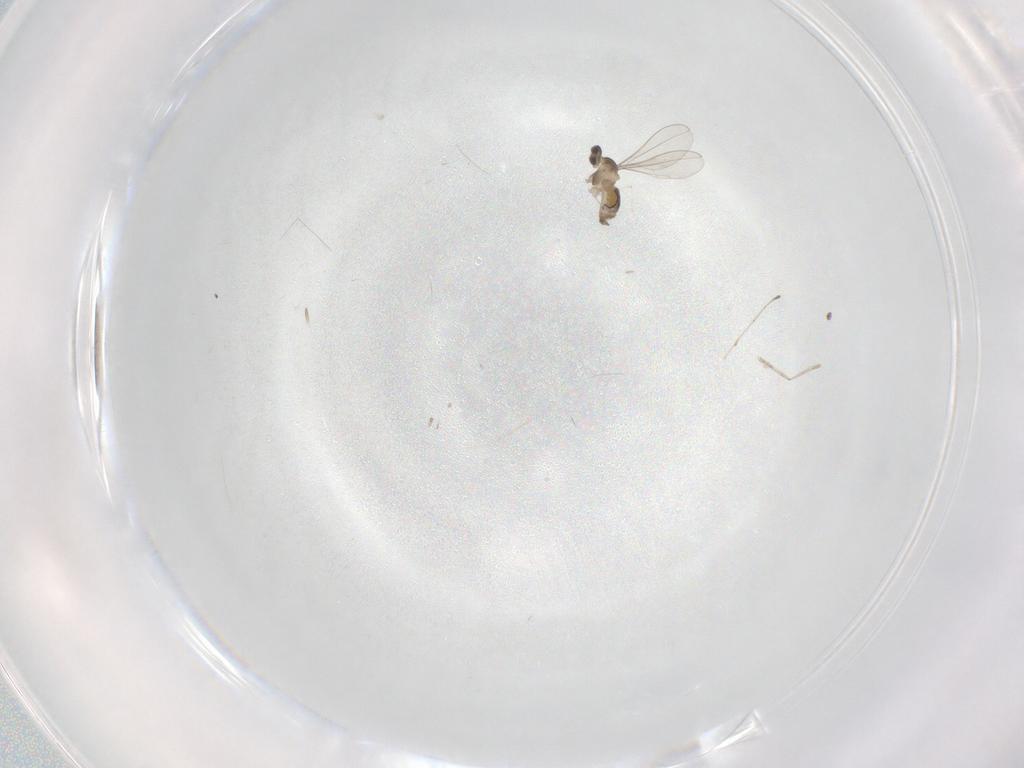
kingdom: Animalia
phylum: Arthropoda
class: Insecta
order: Diptera
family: Cecidomyiidae
